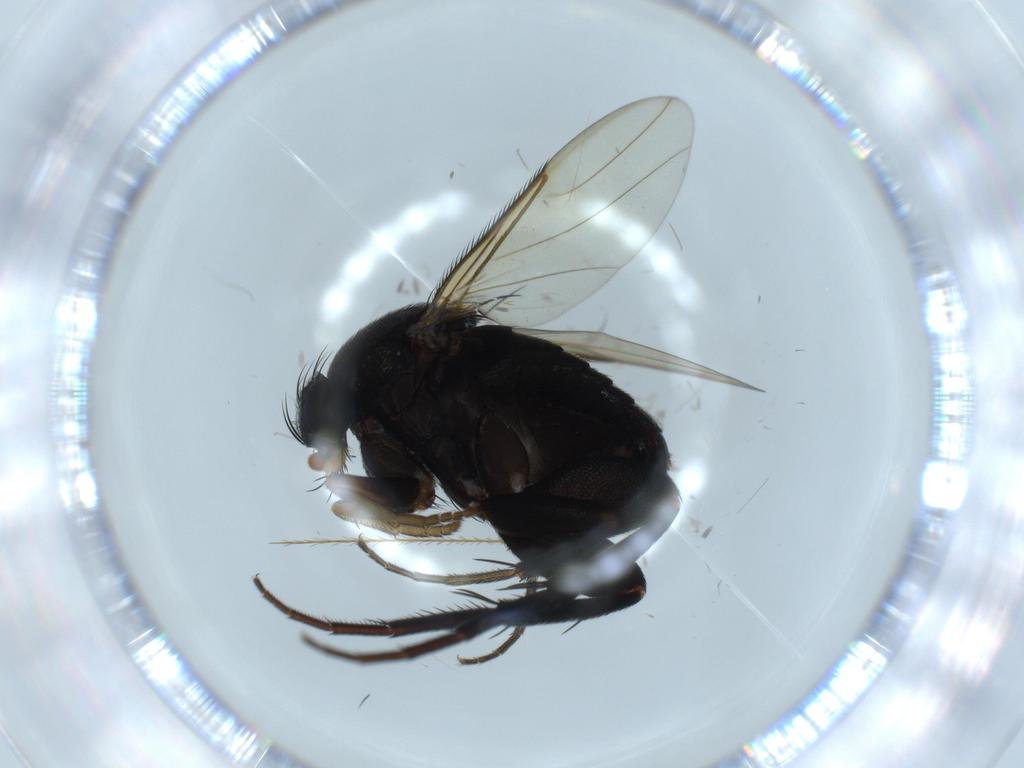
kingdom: Animalia
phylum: Arthropoda
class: Insecta
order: Diptera
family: Phoridae
